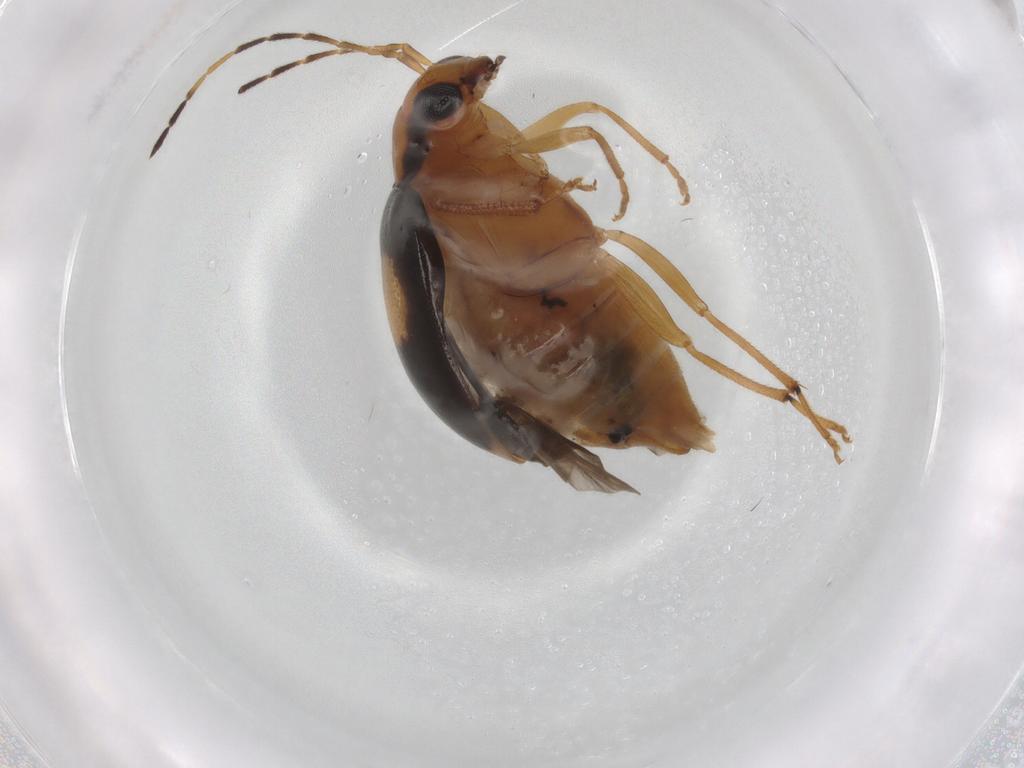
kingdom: Animalia
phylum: Arthropoda
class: Insecta
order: Coleoptera
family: Chrysomelidae
